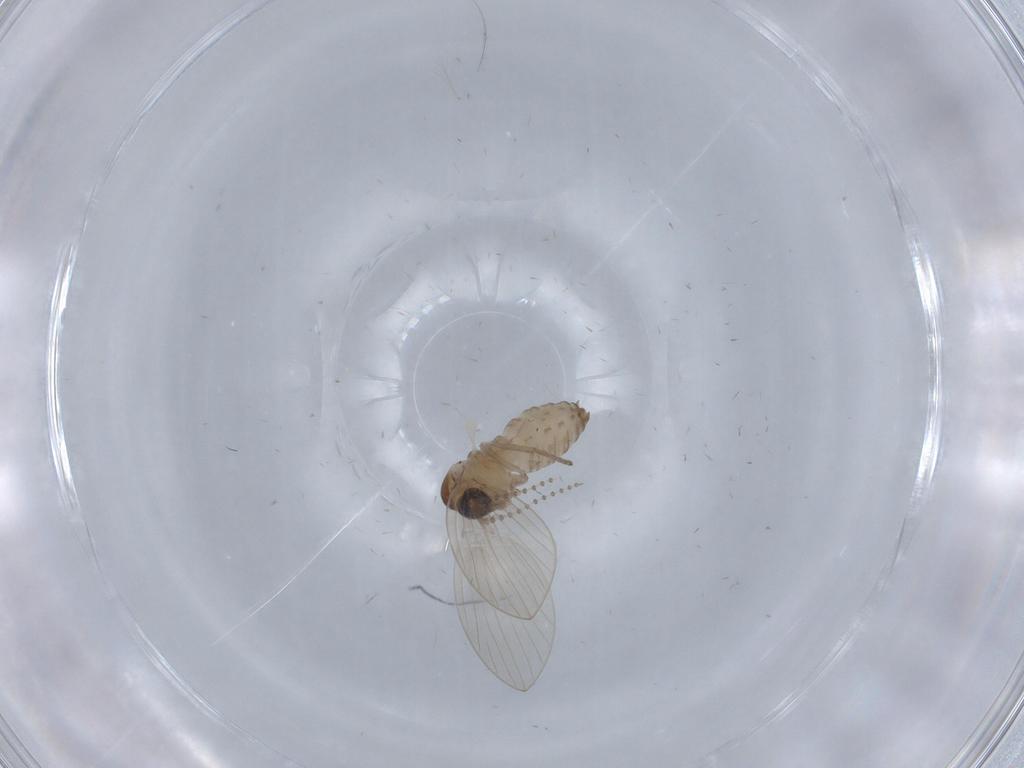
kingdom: Animalia
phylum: Arthropoda
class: Insecta
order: Diptera
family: Psychodidae
